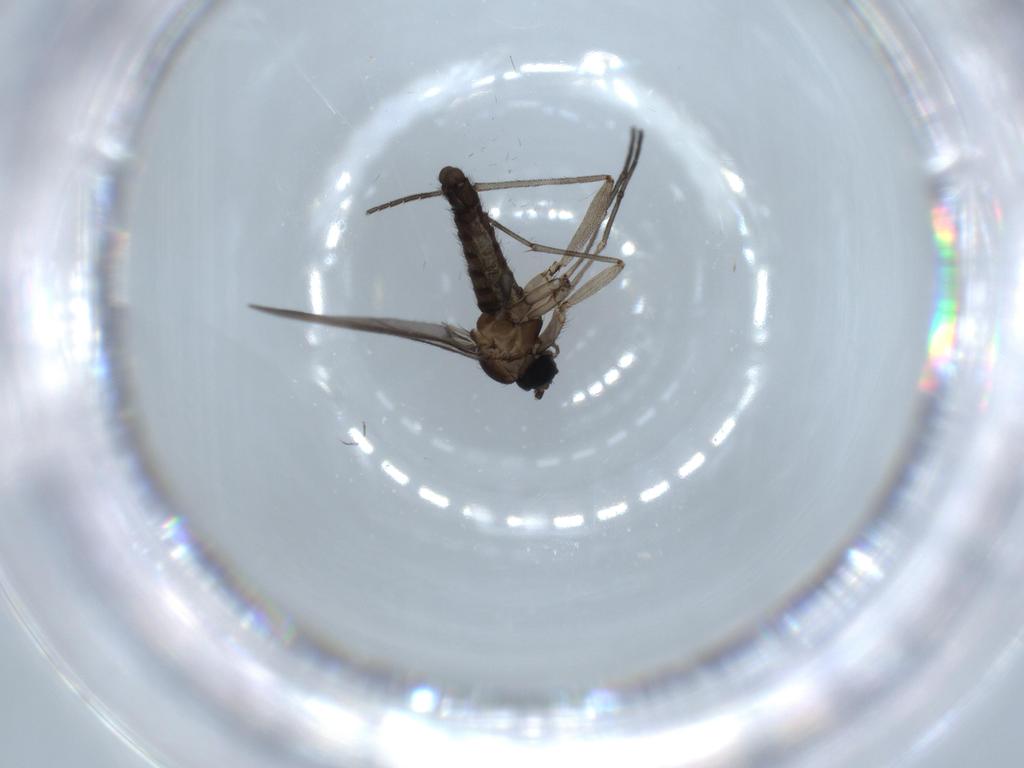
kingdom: Animalia
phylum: Arthropoda
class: Insecta
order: Diptera
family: Sciaridae
